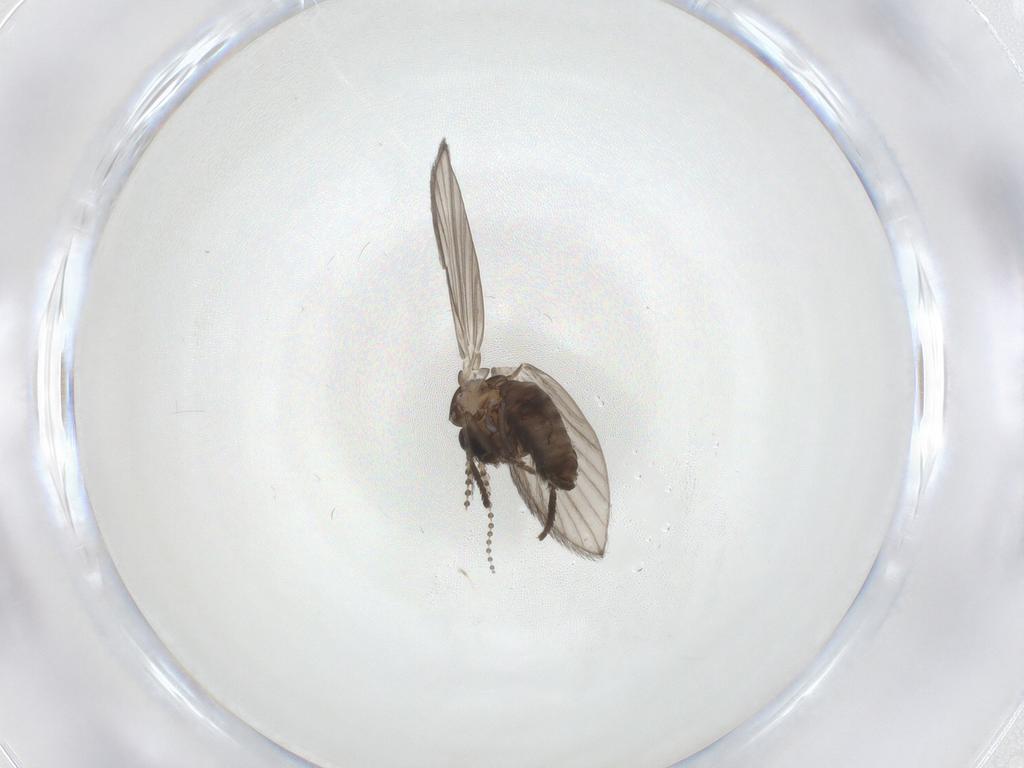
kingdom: Animalia
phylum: Arthropoda
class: Insecta
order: Diptera
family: Psychodidae
